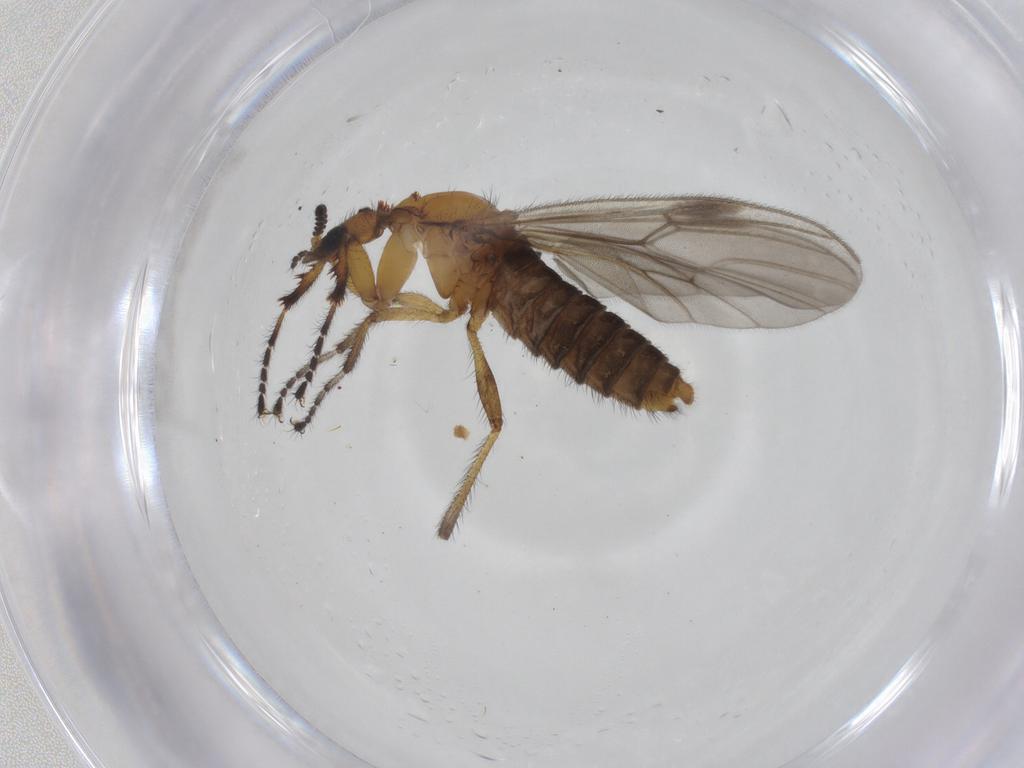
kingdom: Animalia
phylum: Arthropoda
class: Insecta
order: Diptera
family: Bibionidae
